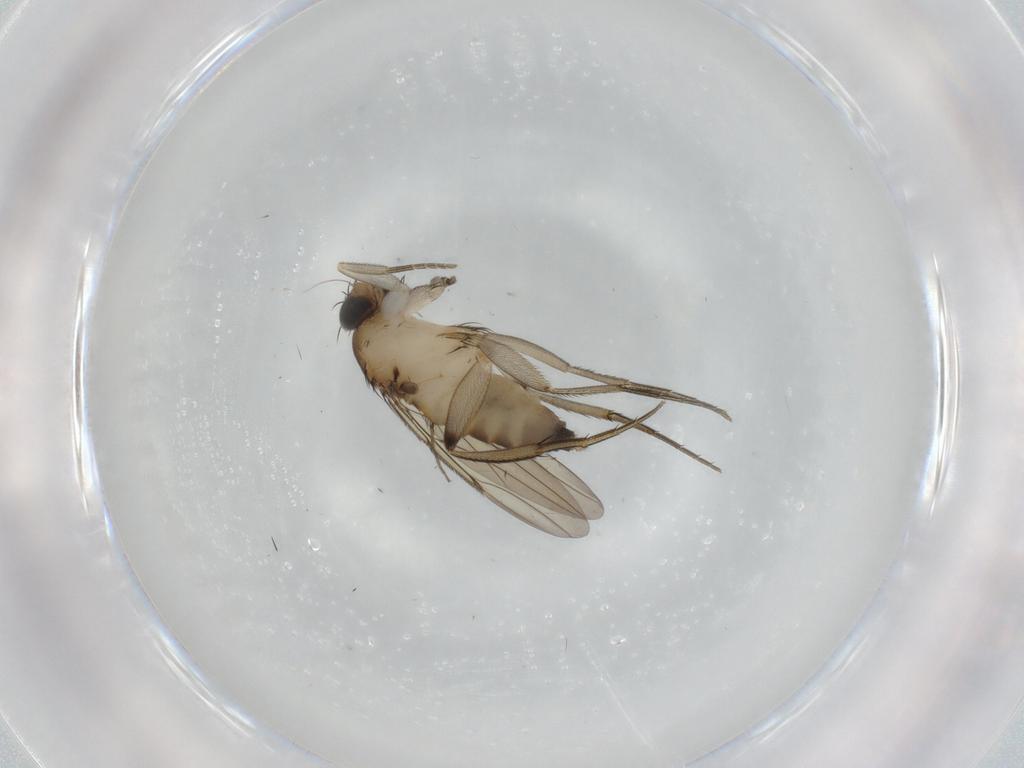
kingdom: Animalia
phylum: Arthropoda
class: Insecta
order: Diptera
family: Phoridae
